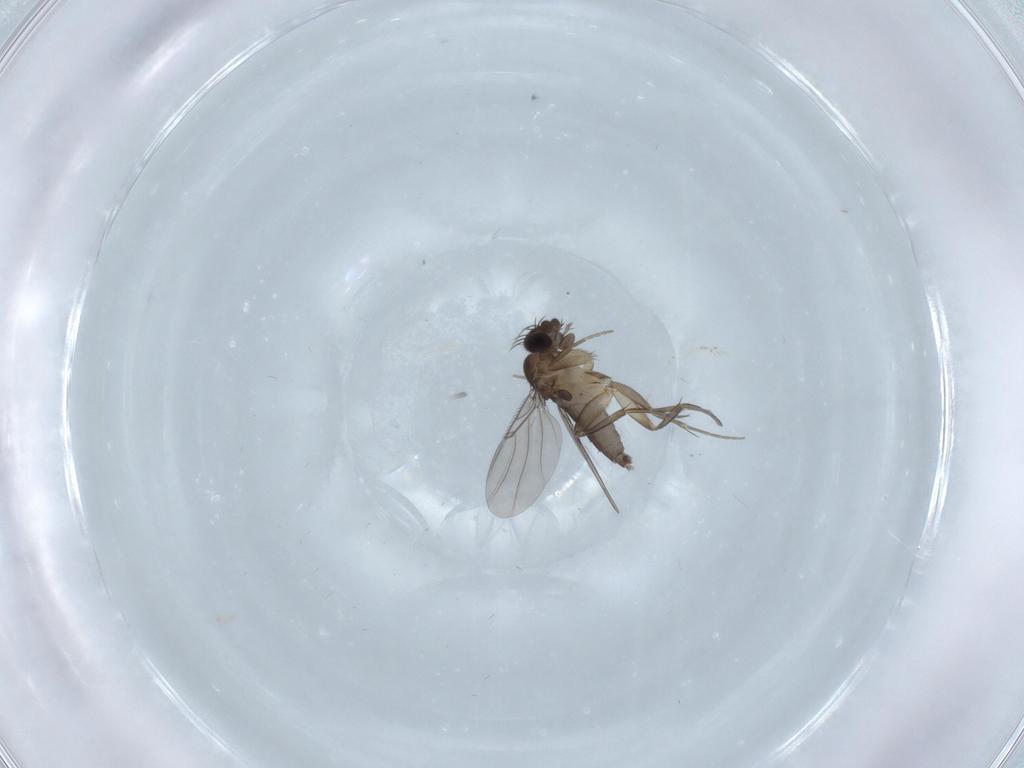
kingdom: Animalia
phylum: Arthropoda
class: Insecta
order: Diptera
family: Phoridae
